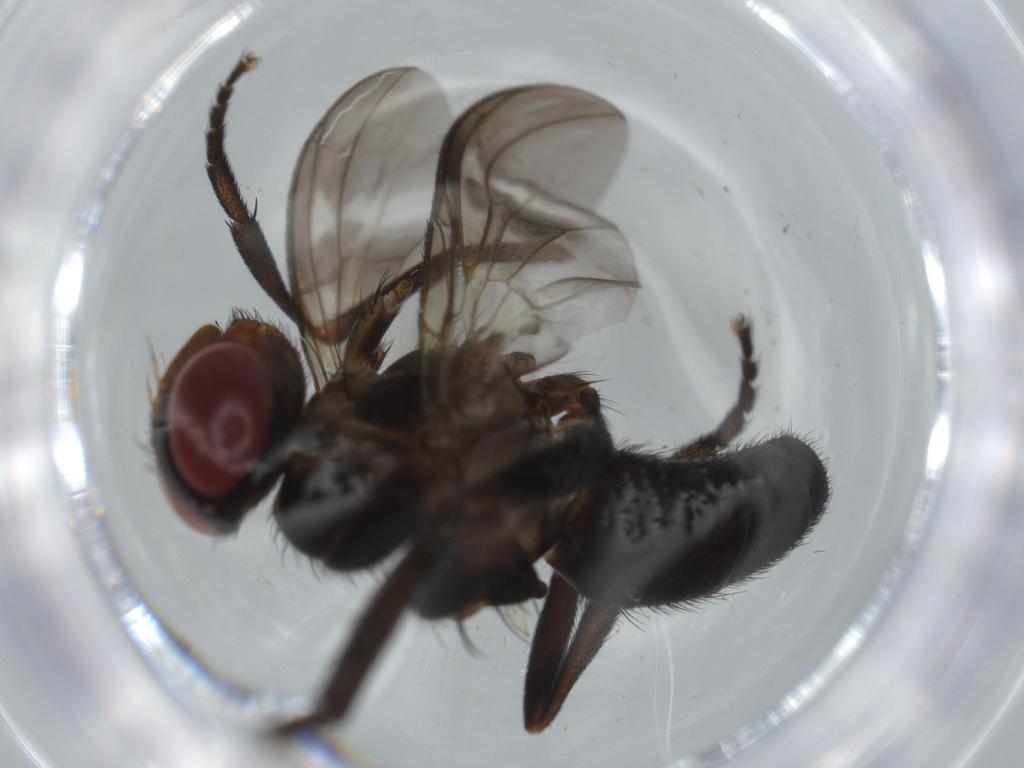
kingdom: Animalia
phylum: Arthropoda
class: Insecta
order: Diptera
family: Calliphoridae
